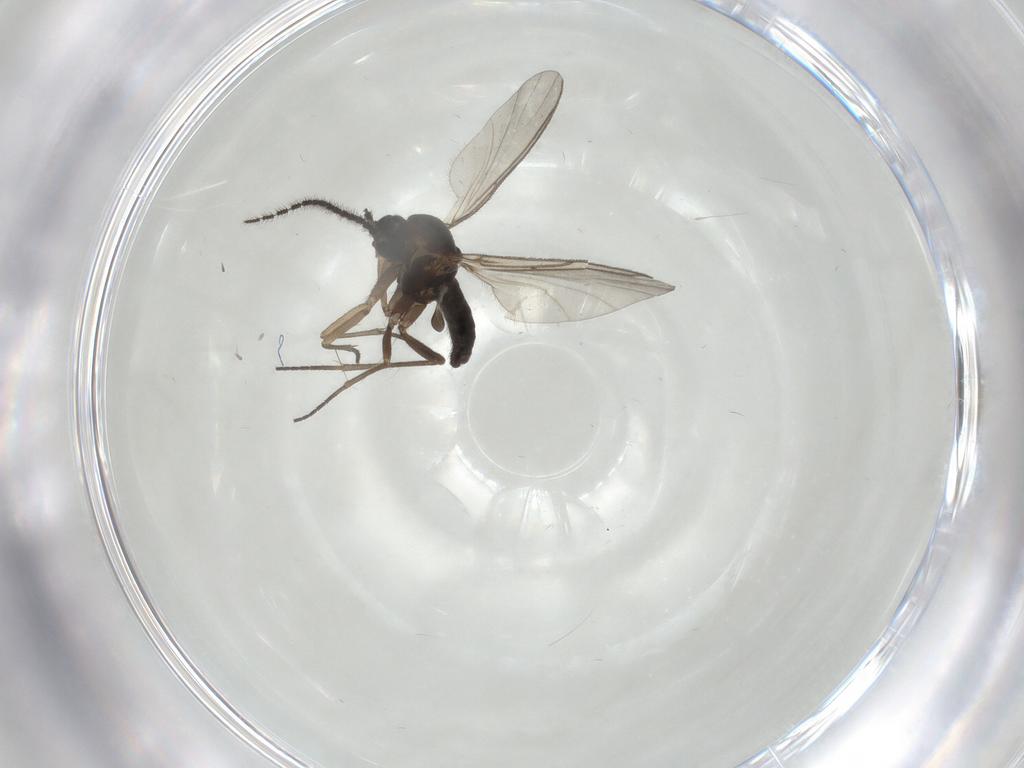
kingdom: Animalia
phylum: Arthropoda
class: Insecta
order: Diptera
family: Sciaridae
